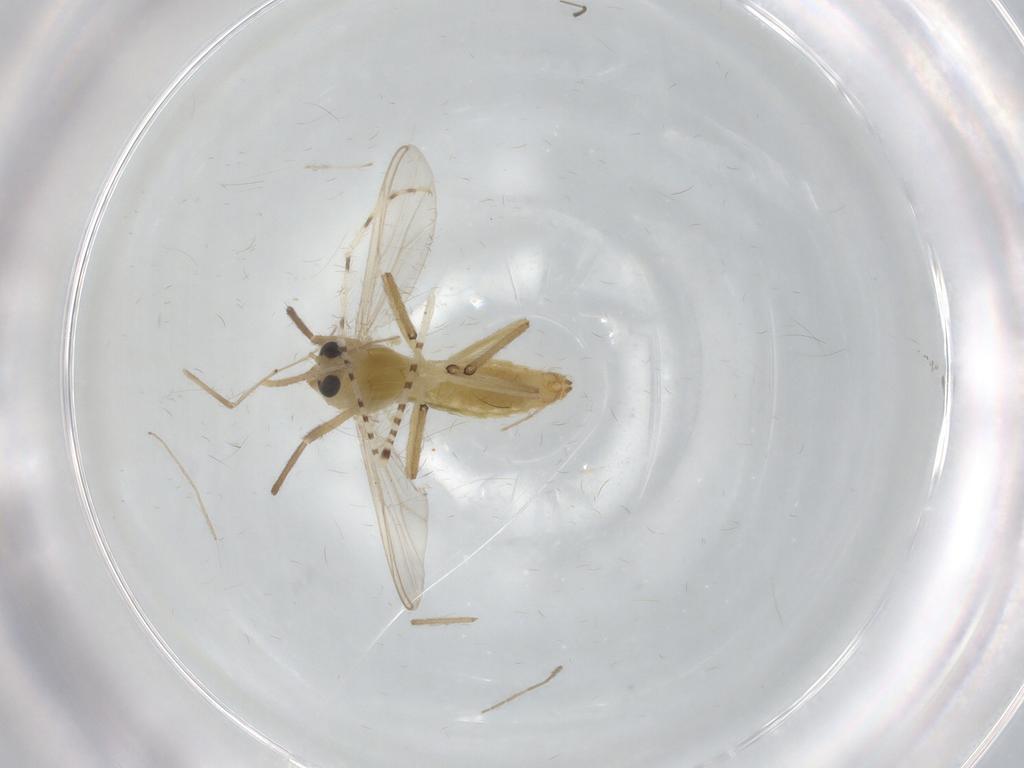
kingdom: Animalia
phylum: Arthropoda
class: Insecta
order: Diptera
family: Chironomidae
